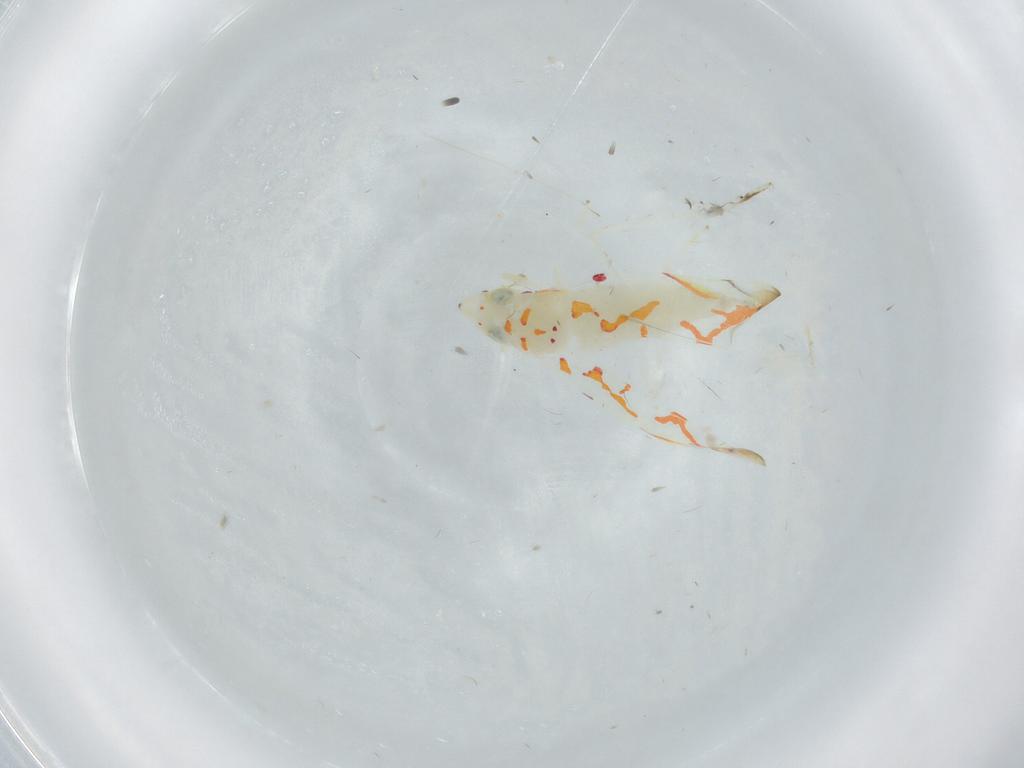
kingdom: Animalia
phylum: Arthropoda
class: Insecta
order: Hemiptera
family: Cicadellidae
